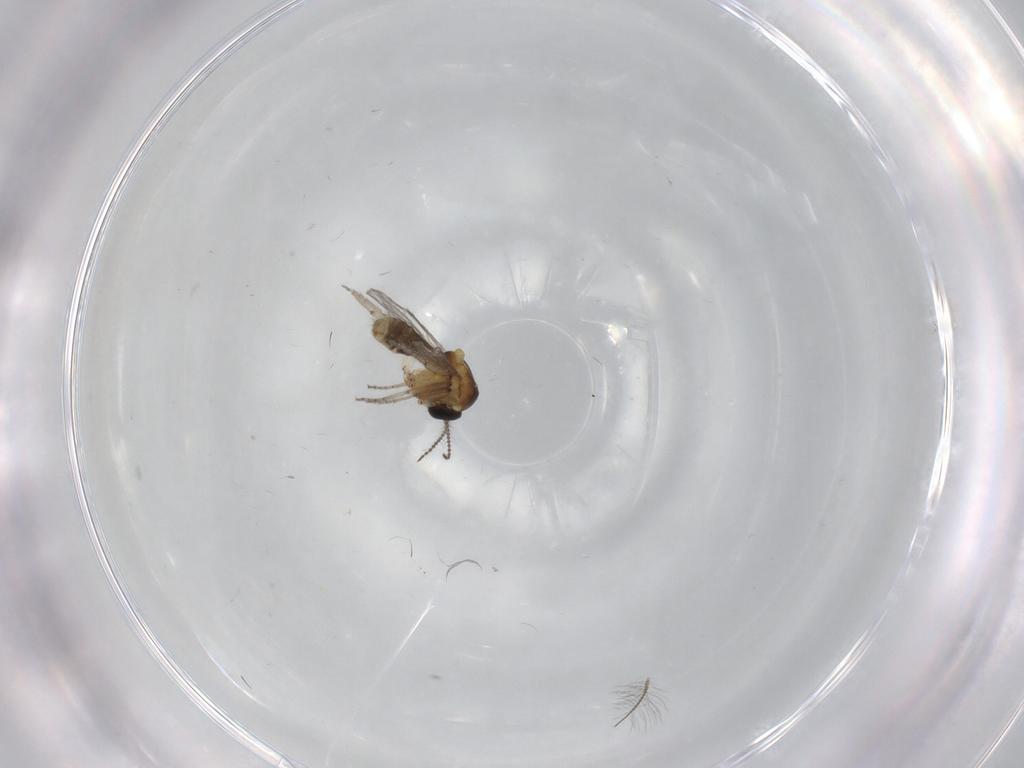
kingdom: Animalia
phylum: Arthropoda
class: Insecta
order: Diptera
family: Ceratopogonidae
